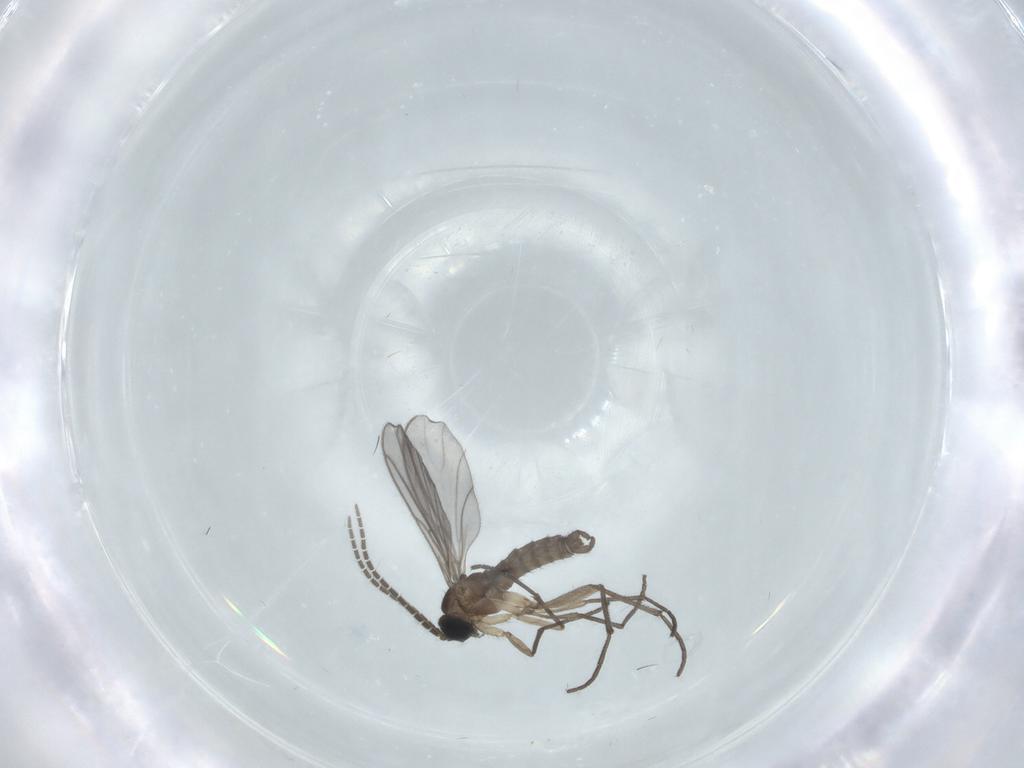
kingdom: Animalia
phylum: Arthropoda
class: Insecta
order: Diptera
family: Sciaridae
